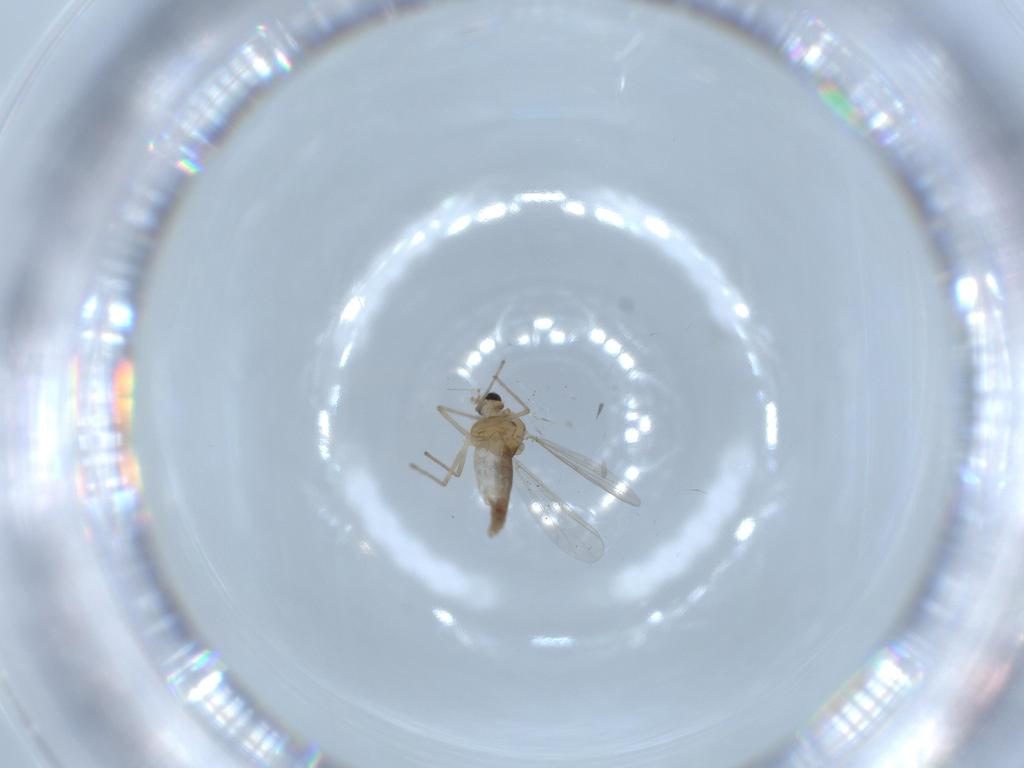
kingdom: Animalia
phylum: Arthropoda
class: Insecta
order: Diptera
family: Chironomidae
